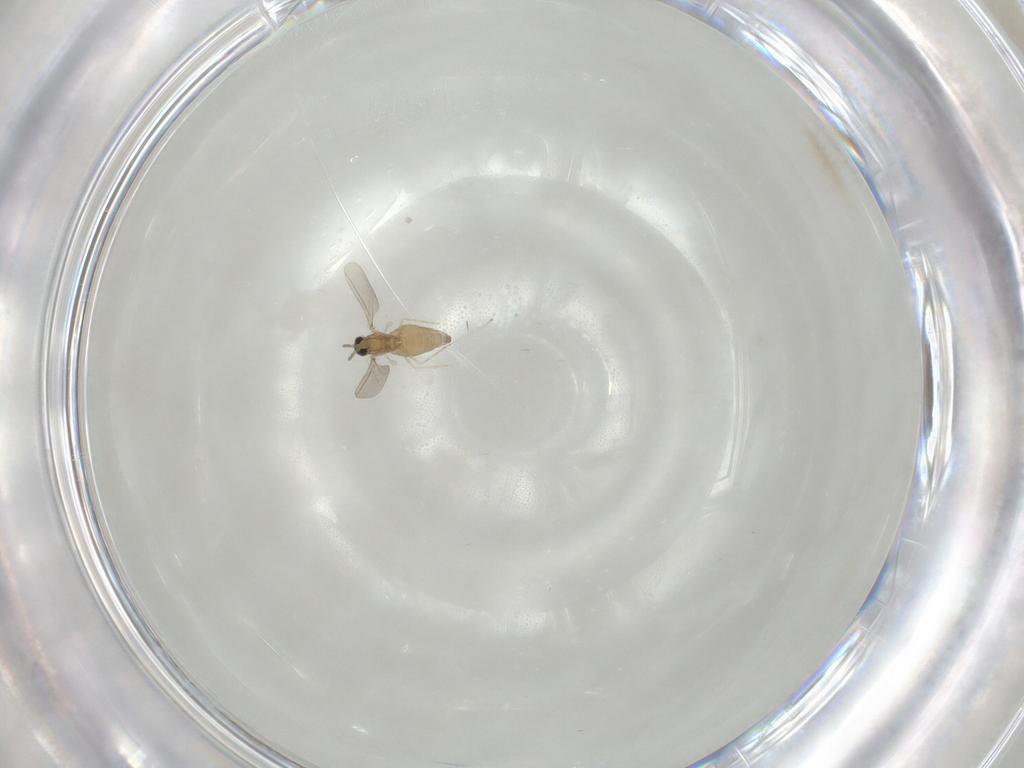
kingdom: Animalia
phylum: Arthropoda
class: Insecta
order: Diptera
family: Cecidomyiidae
